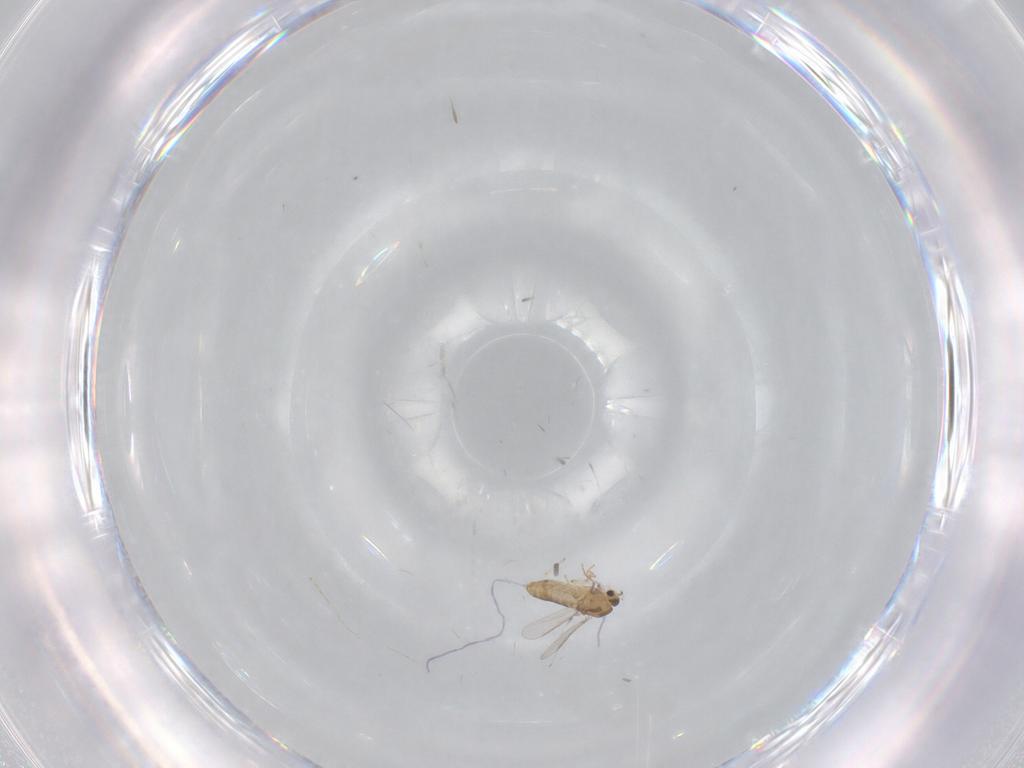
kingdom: Animalia
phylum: Arthropoda
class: Insecta
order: Diptera
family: Chironomidae
